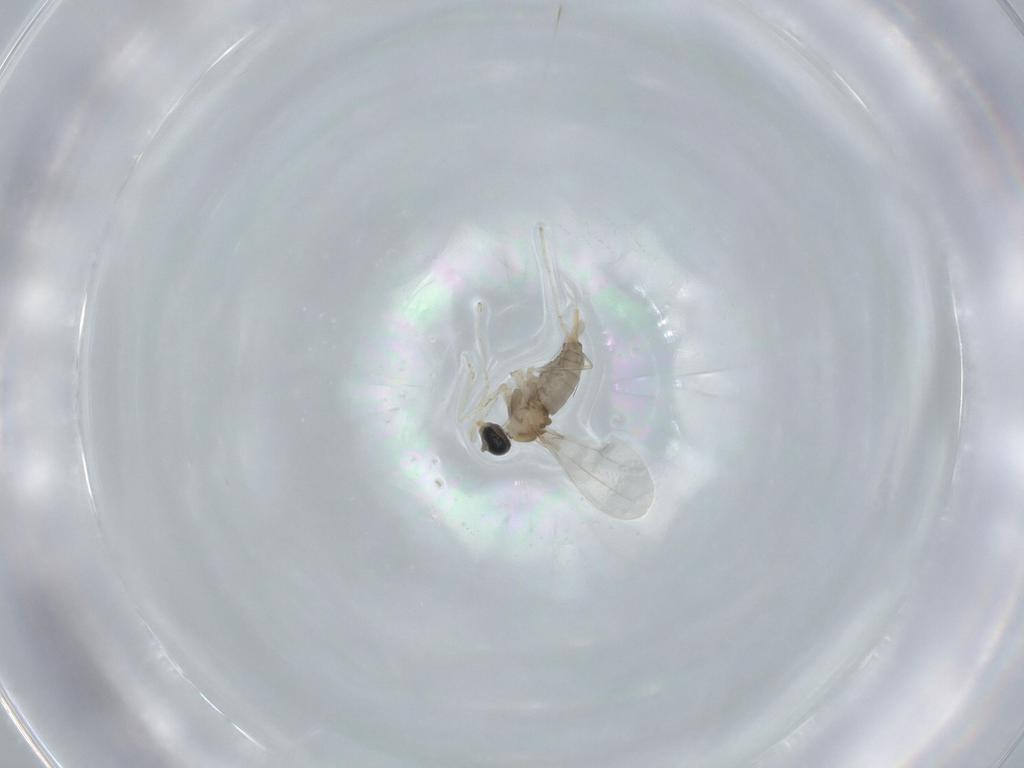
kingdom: Animalia
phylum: Arthropoda
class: Insecta
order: Diptera
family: Cecidomyiidae
